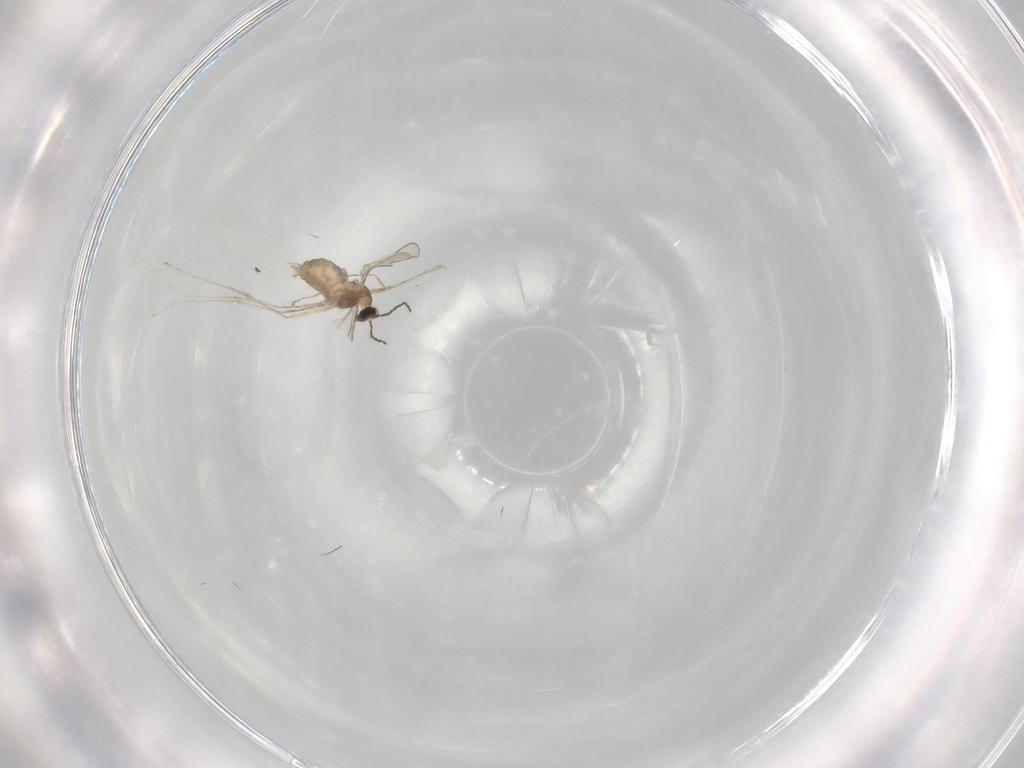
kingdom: Animalia
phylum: Arthropoda
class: Insecta
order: Diptera
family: Cecidomyiidae
